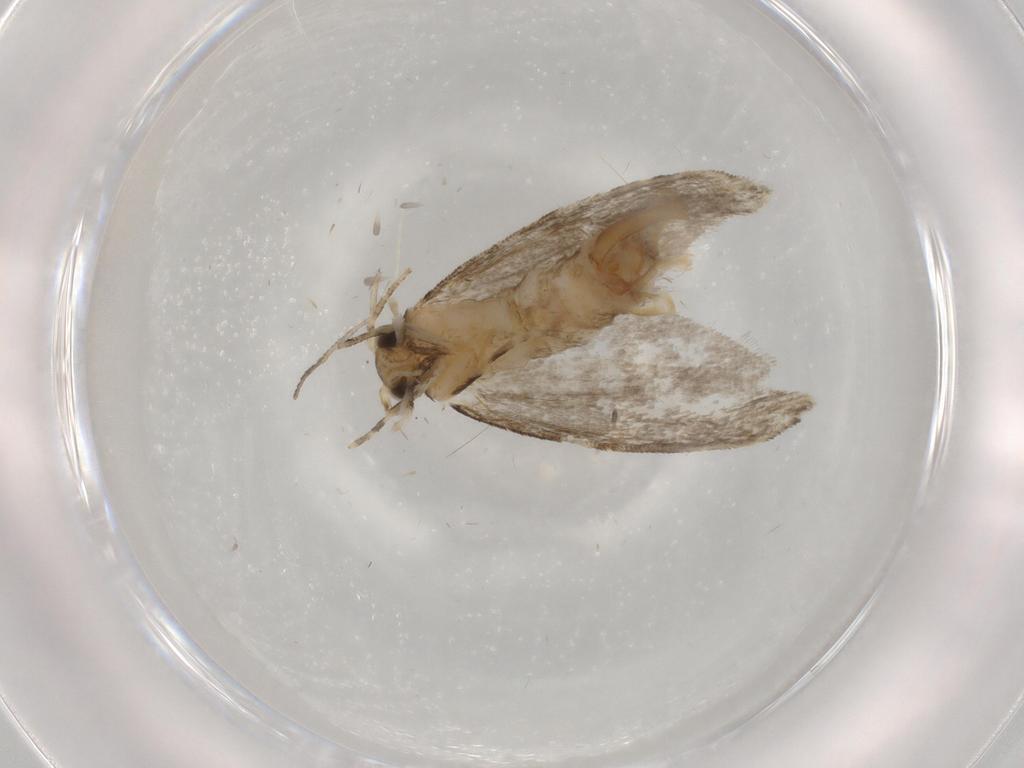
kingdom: Animalia
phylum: Arthropoda
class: Insecta
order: Lepidoptera
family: Tineidae
